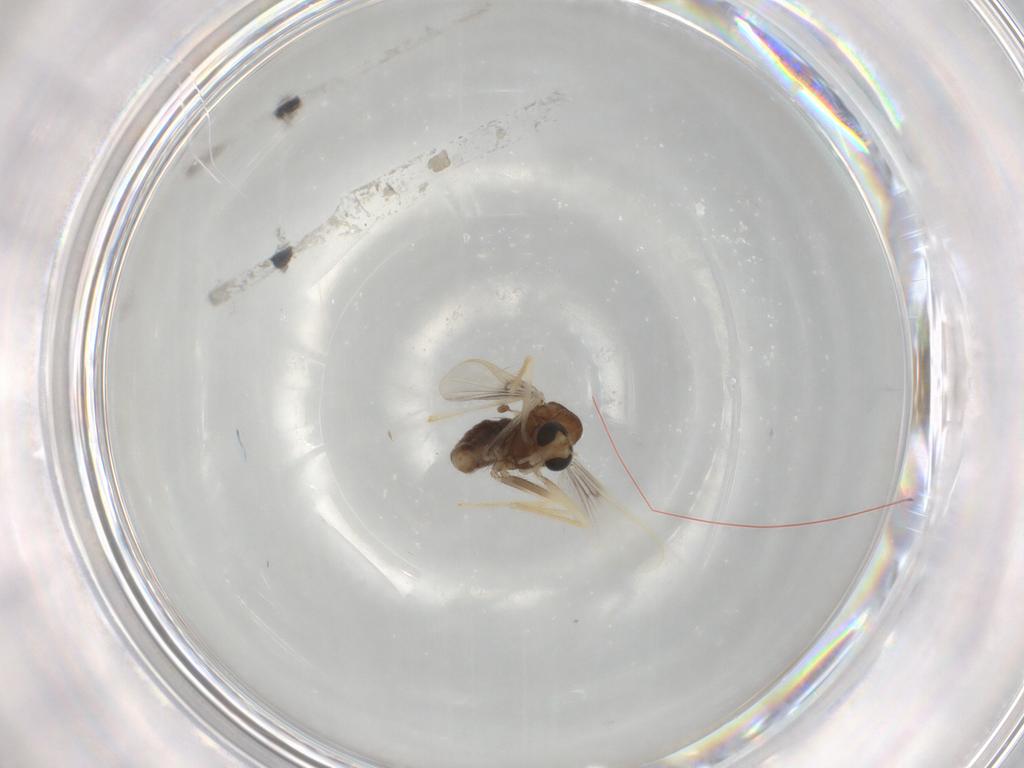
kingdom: Animalia
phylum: Arthropoda
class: Insecta
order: Diptera
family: Chironomidae
